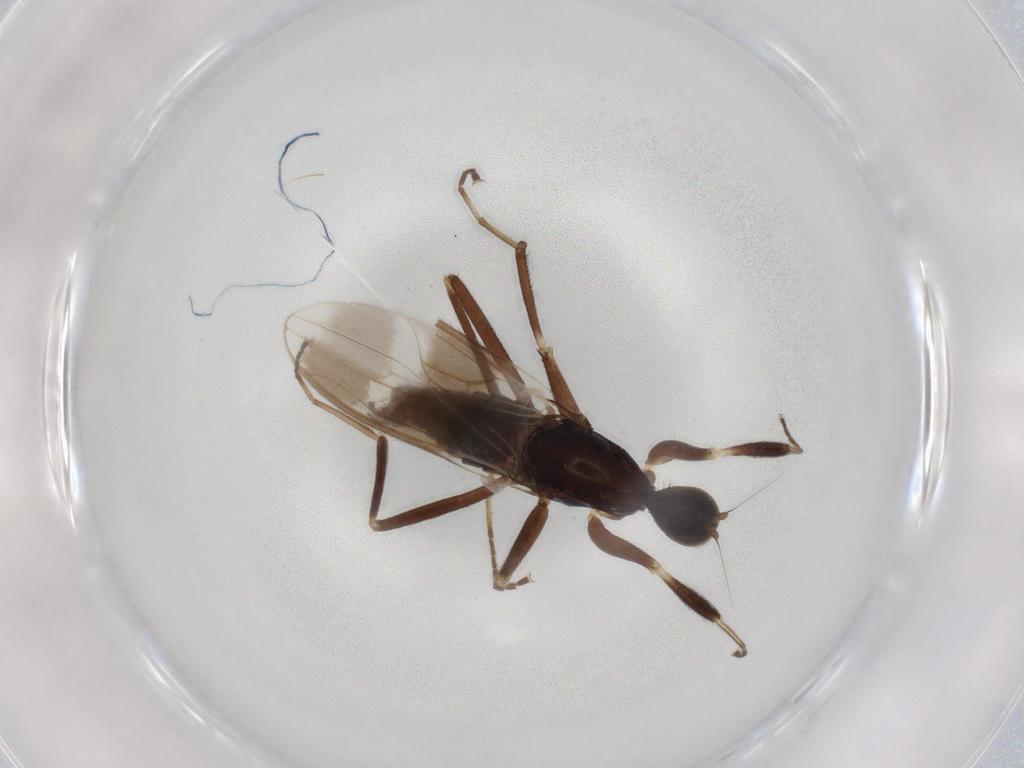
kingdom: Animalia
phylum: Arthropoda
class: Insecta
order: Diptera
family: Hybotidae
